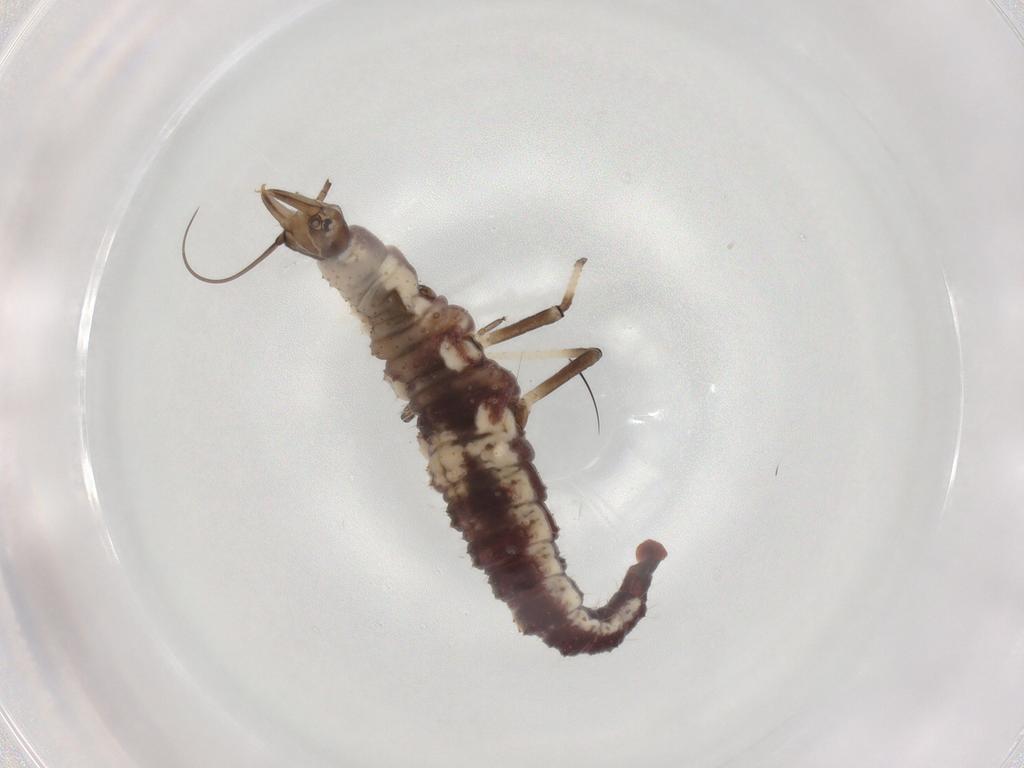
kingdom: Animalia
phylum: Arthropoda
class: Insecta
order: Hemiptera
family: Cicadellidae
